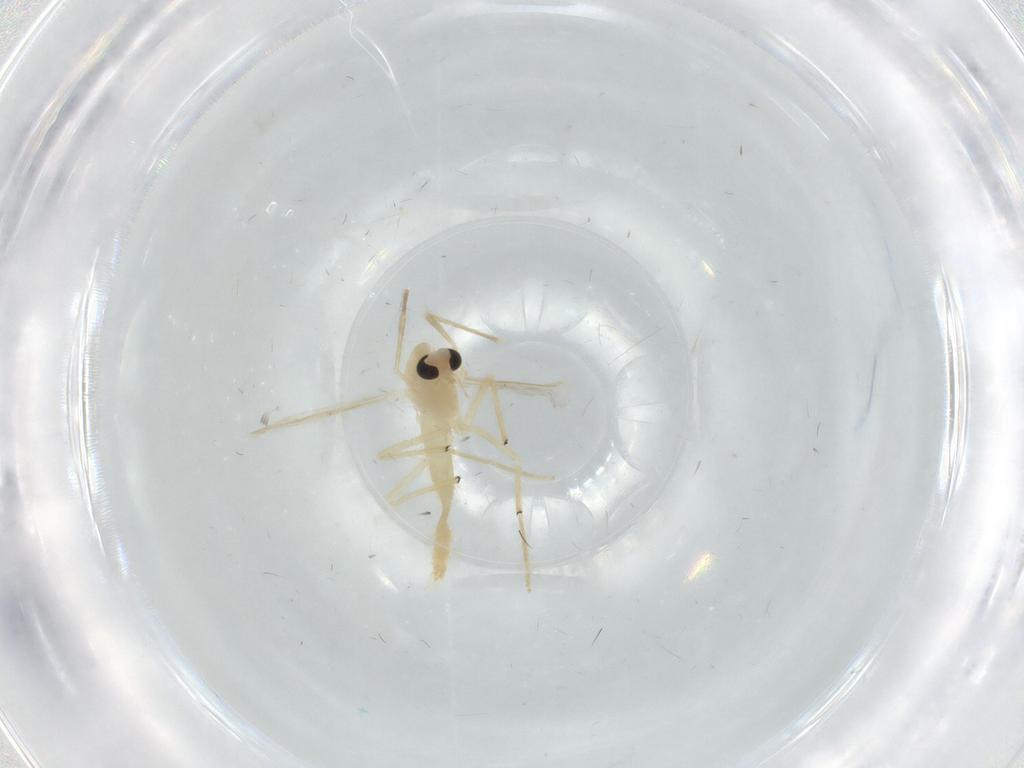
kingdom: Animalia
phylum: Arthropoda
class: Insecta
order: Diptera
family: Chironomidae
